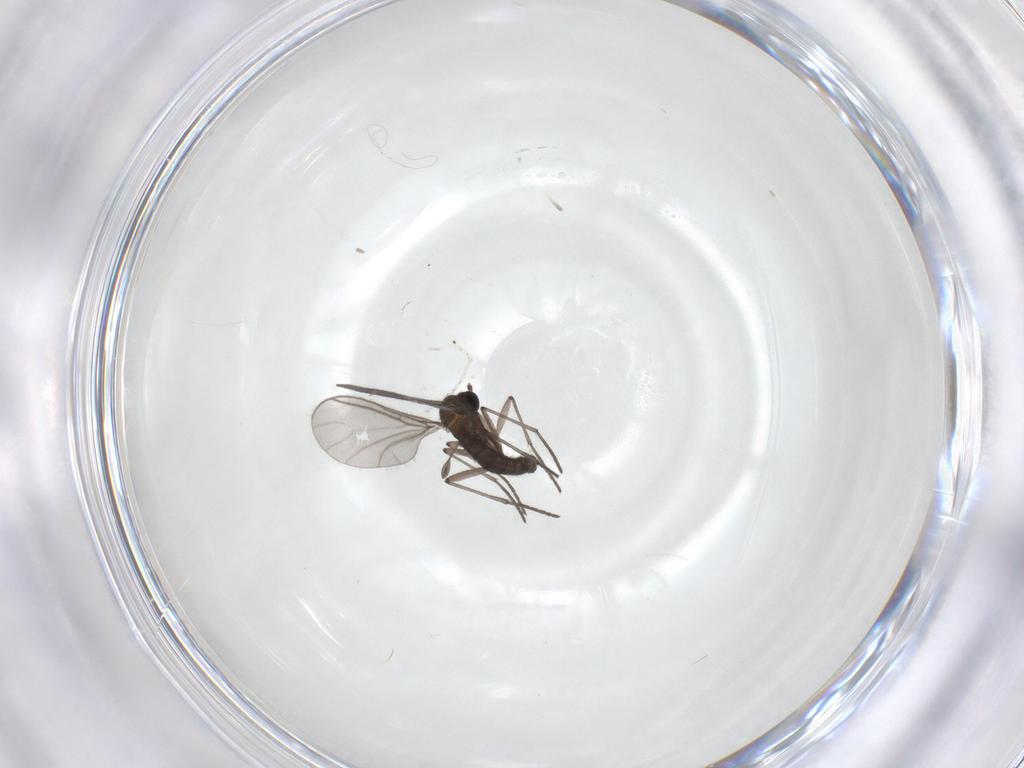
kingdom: Animalia
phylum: Arthropoda
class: Insecta
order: Diptera
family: Sciaridae
